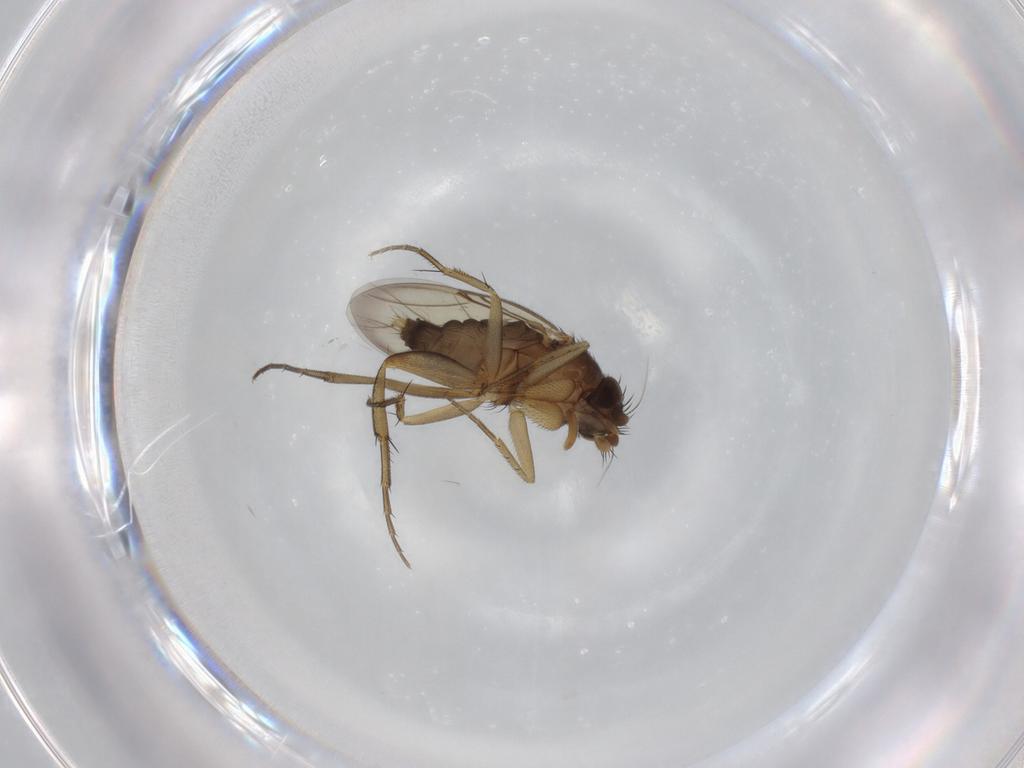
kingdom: Animalia
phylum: Arthropoda
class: Insecta
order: Diptera
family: Phoridae
